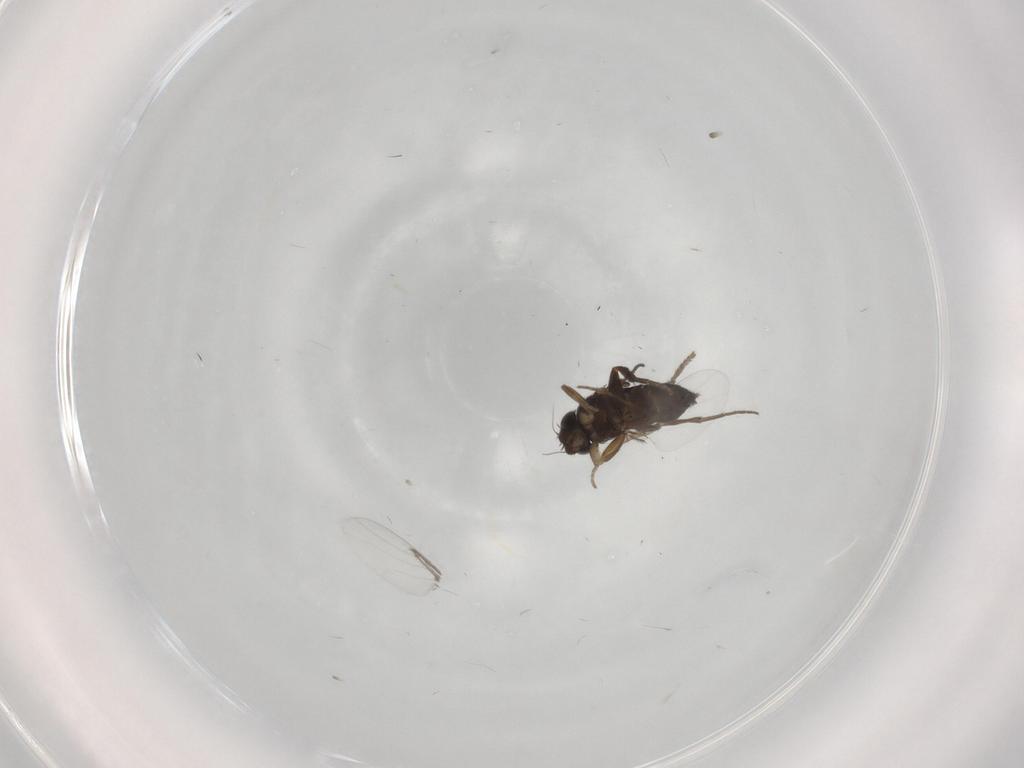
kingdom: Animalia
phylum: Arthropoda
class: Insecta
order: Diptera
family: Phoridae
